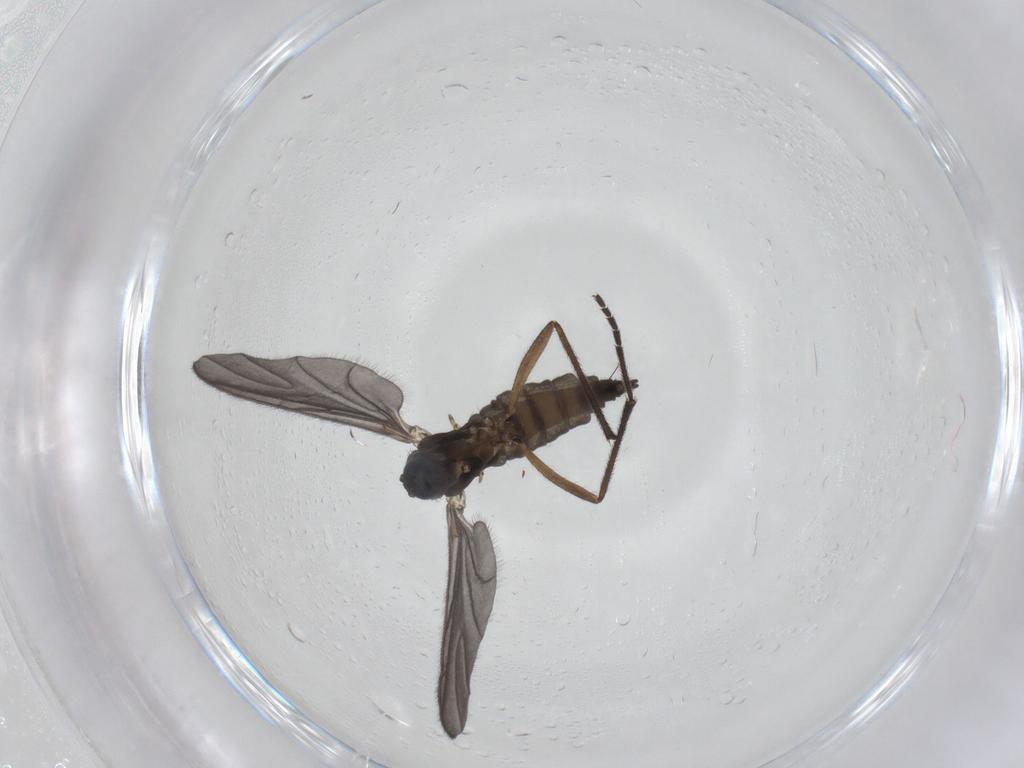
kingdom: Animalia
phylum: Arthropoda
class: Insecta
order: Diptera
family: Sciaridae
